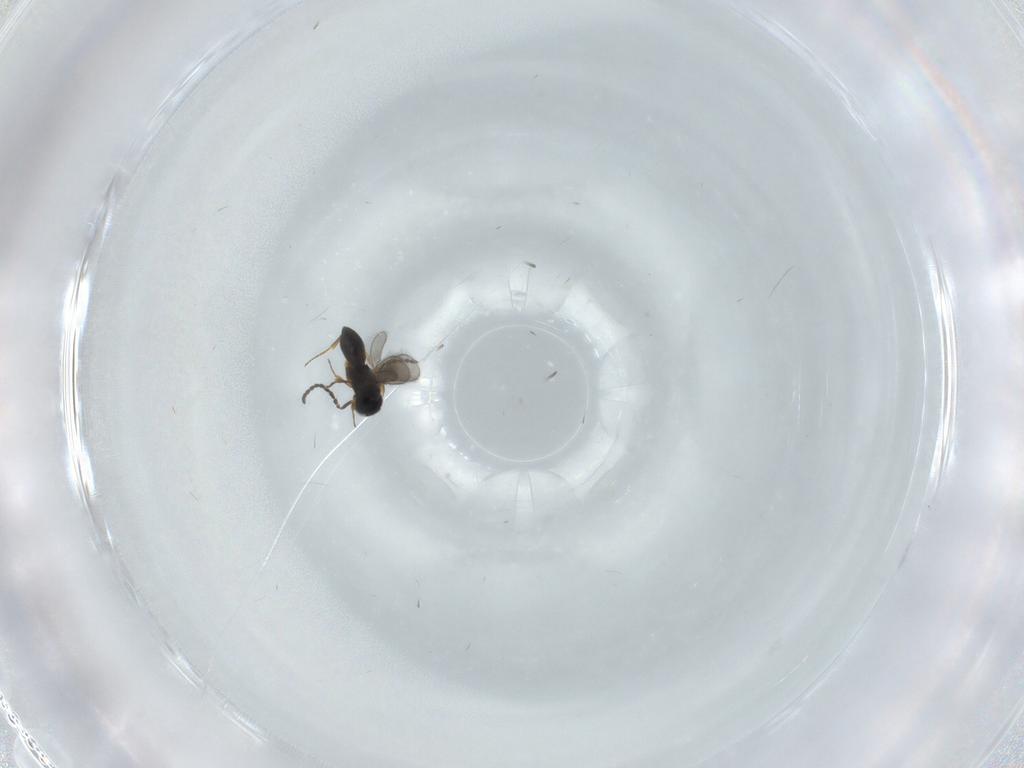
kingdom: Animalia
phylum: Arthropoda
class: Insecta
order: Hymenoptera
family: Scelionidae
